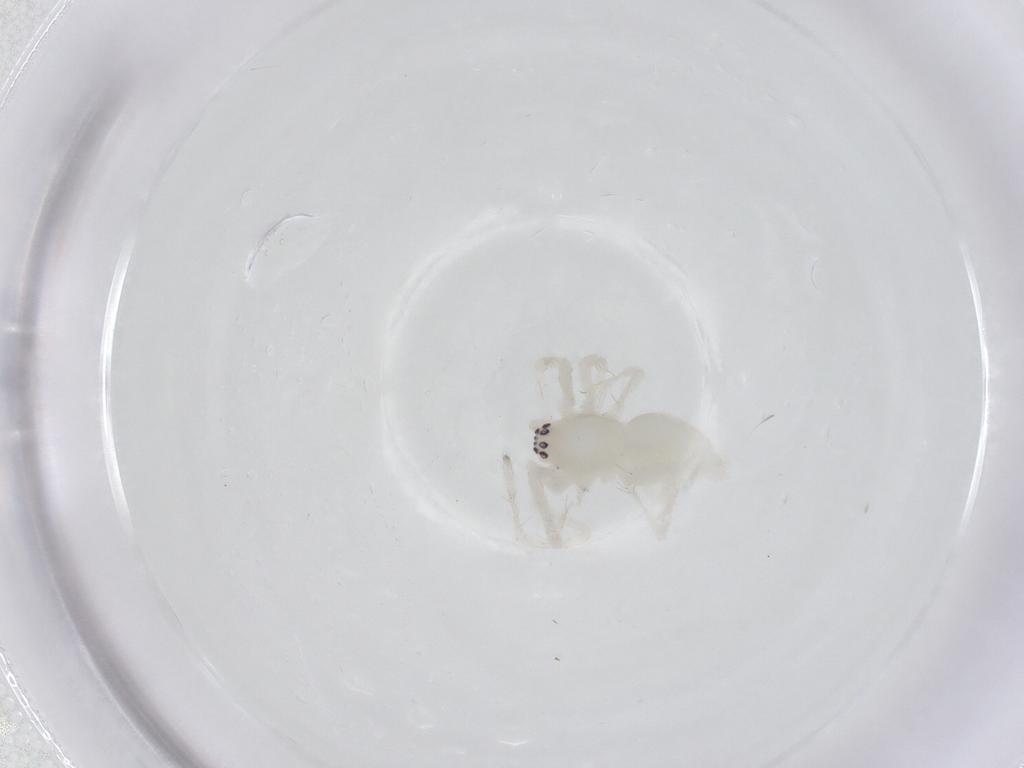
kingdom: Animalia
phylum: Arthropoda
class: Arachnida
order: Araneae
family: Anyphaenidae
